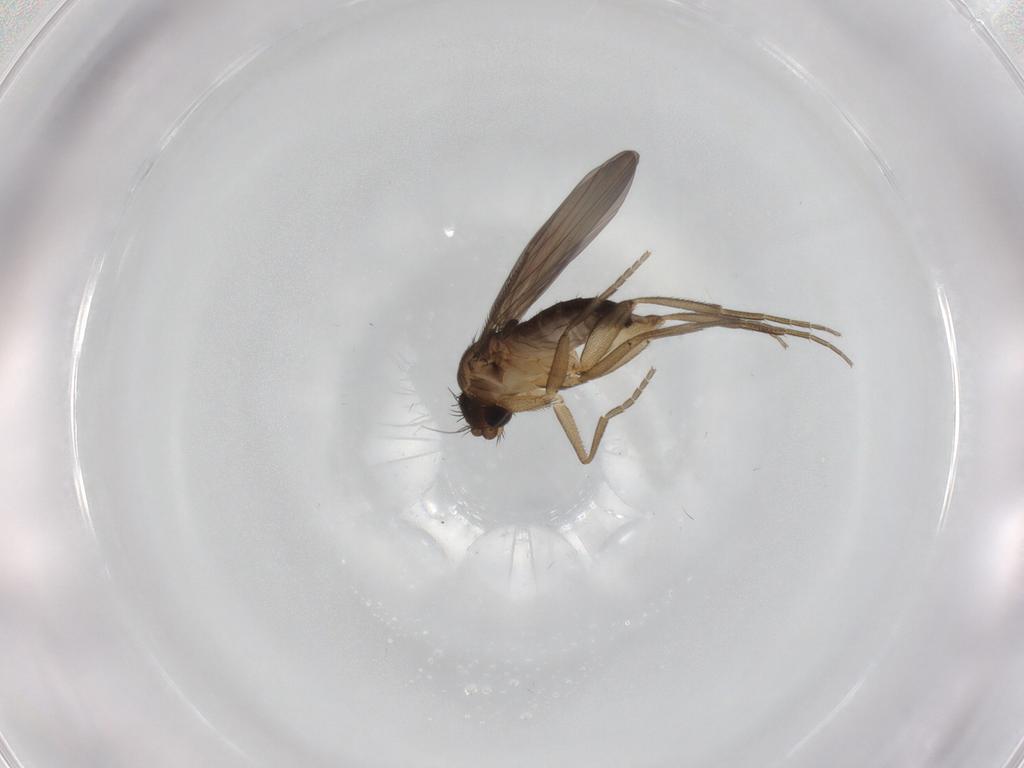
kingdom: Animalia
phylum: Arthropoda
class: Insecta
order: Diptera
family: Phoridae
